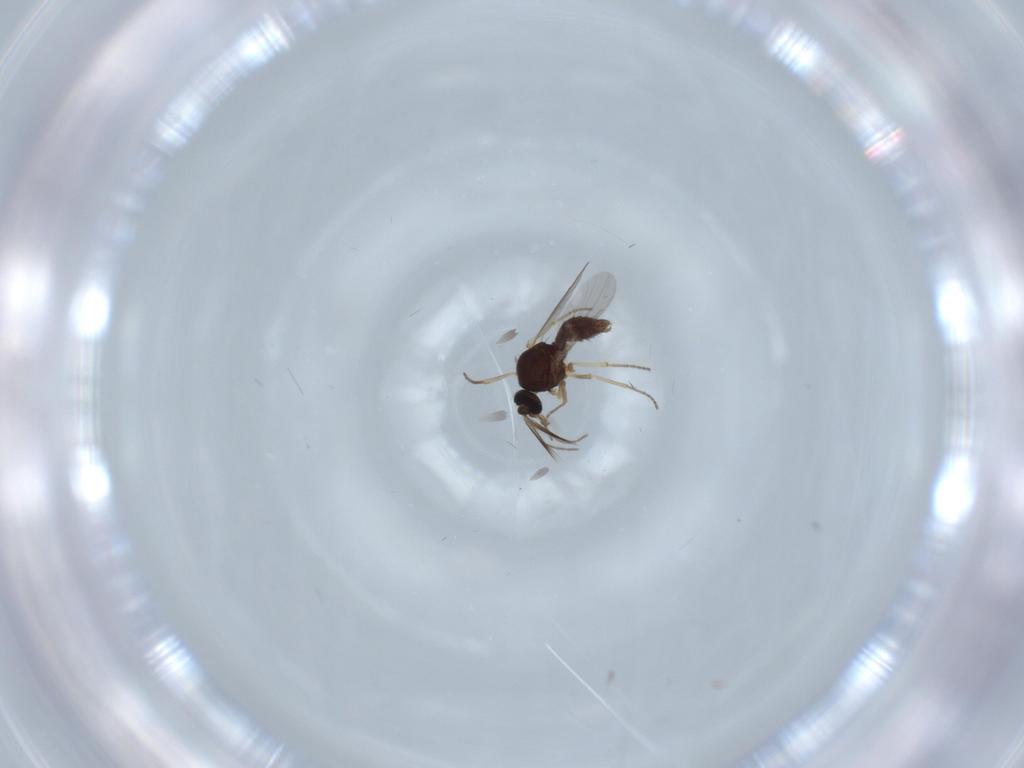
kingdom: Animalia
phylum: Arthropoda
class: Insecta
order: Diptera
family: Ceratopogonidae
